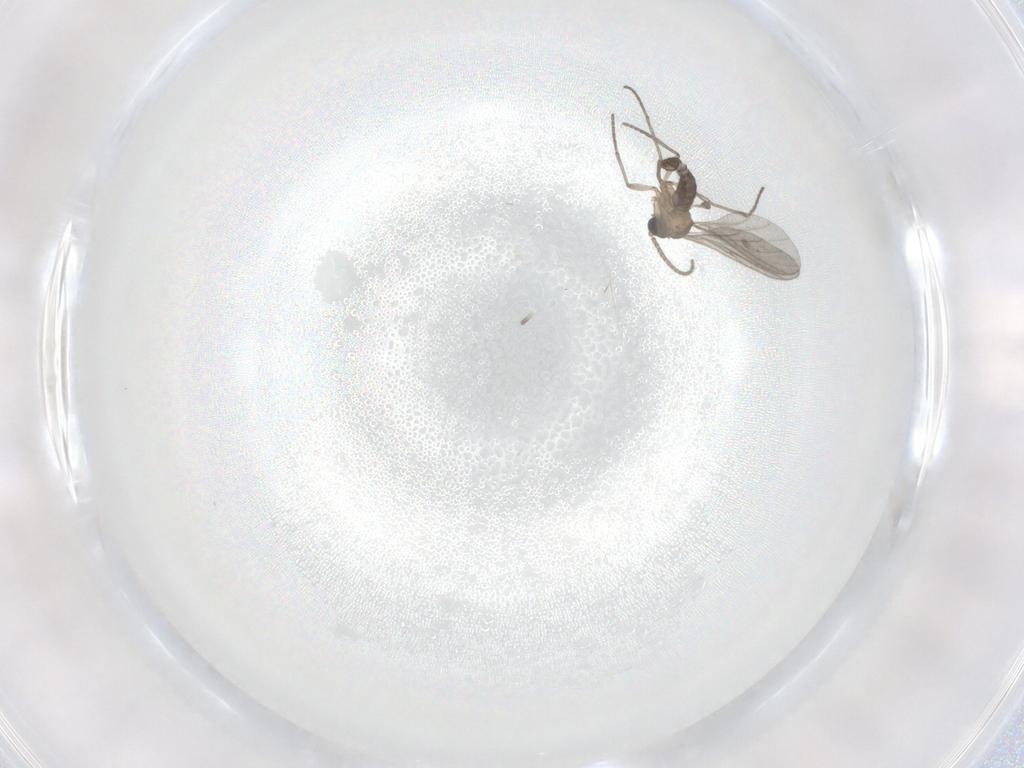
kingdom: Animalia
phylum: Arthropoda
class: Insecta
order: Diptera
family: Sciaridae
